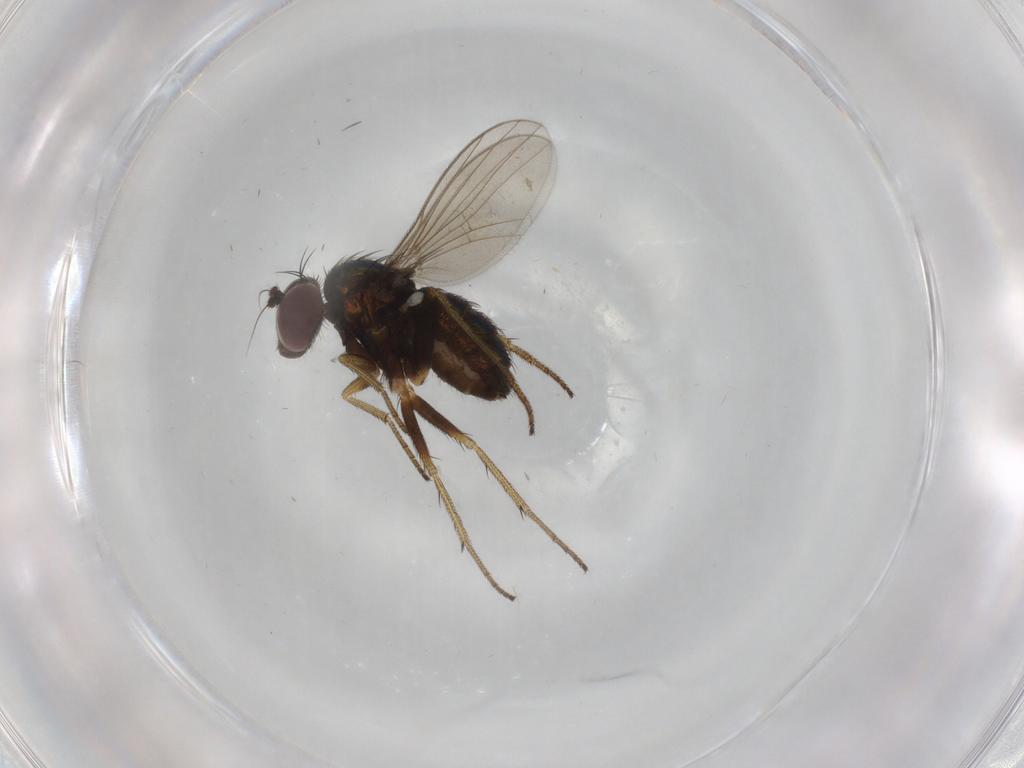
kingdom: Animalia
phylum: Arthropoda
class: Insecta
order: Diptera
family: Dolichopodidae
